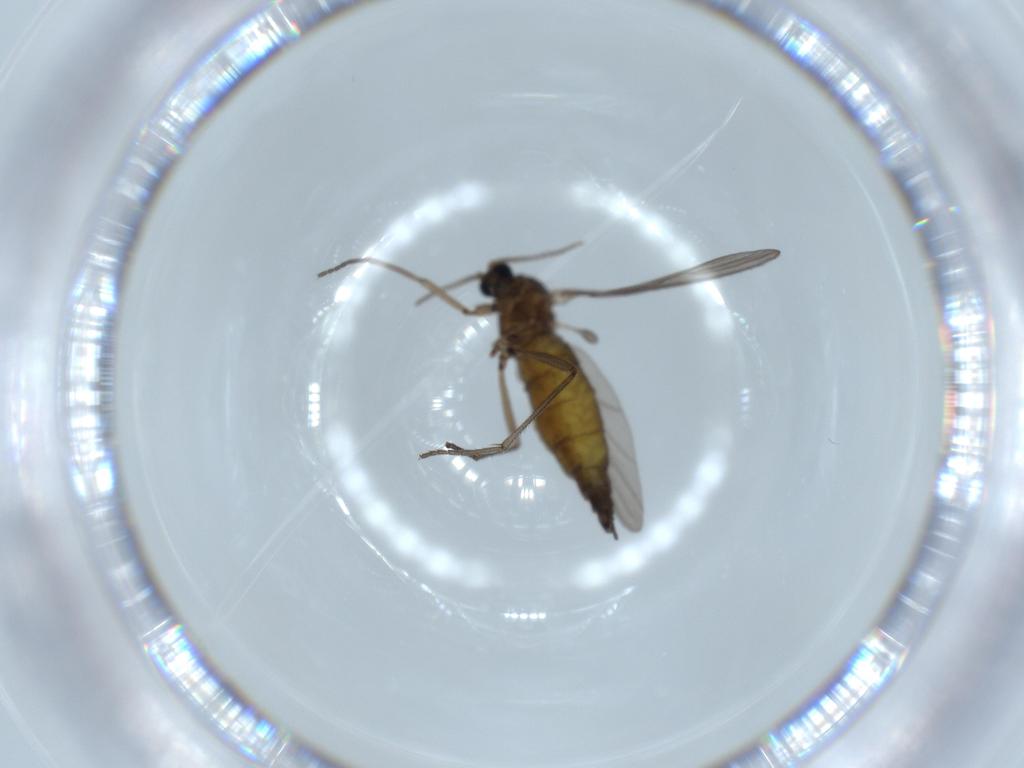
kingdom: Animalia
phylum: Arthropoda
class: Insecta
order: Diptera
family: Sciaridae
